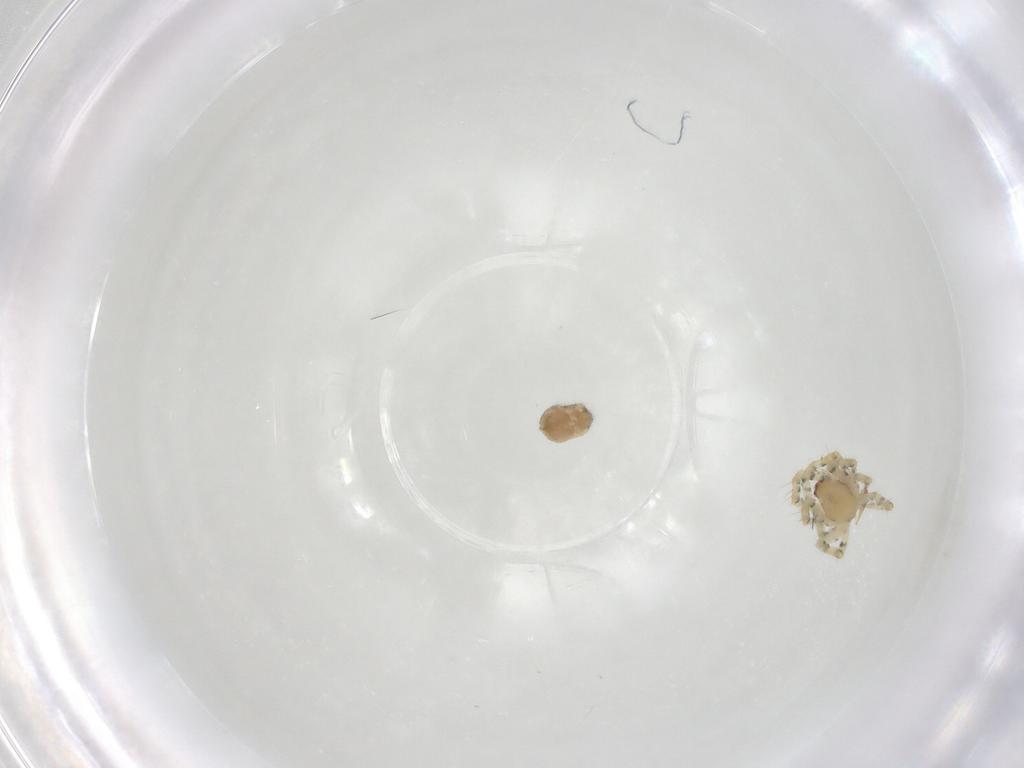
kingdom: Animalia
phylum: Arthropoda
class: Arachnida
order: Araneae
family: Theridiidae
